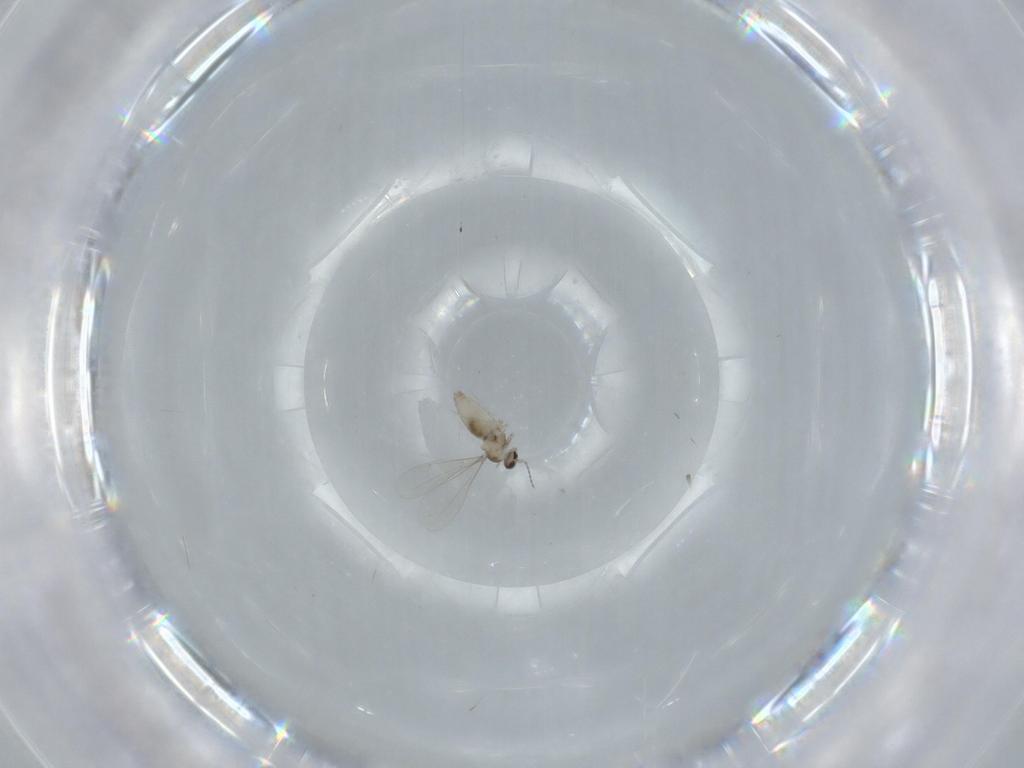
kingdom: Animalia
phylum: Arthropoda
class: Insecta
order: Diptera
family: Cecidomyiidae
